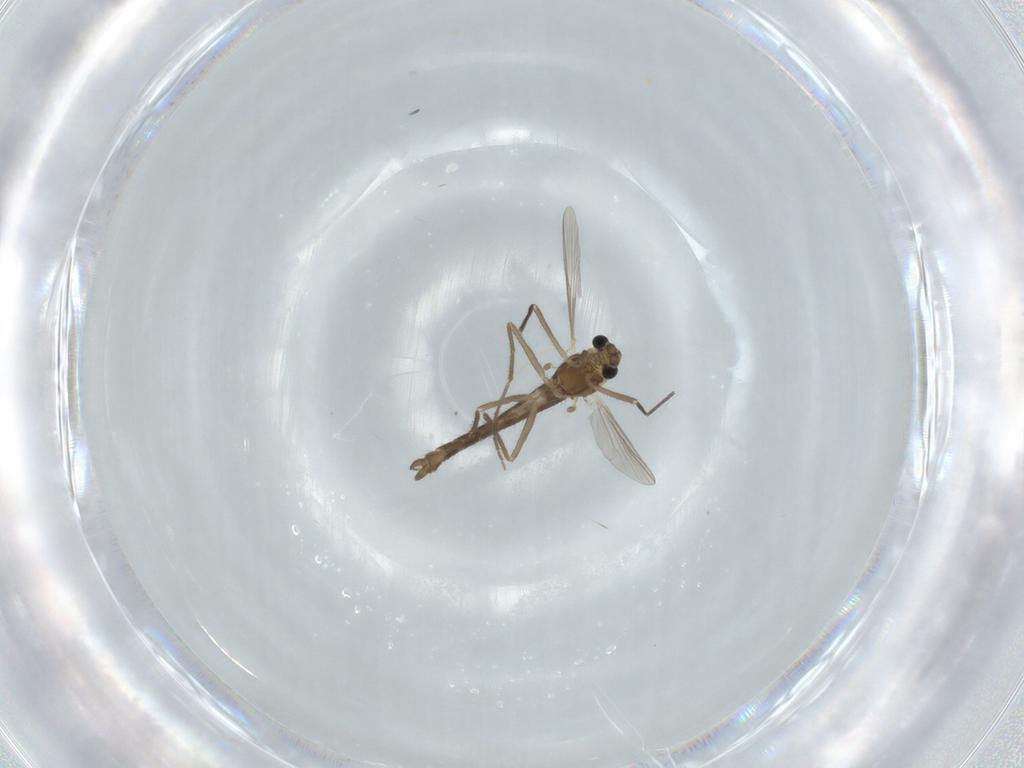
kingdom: Animalia
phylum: Arthropoda
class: Insecta
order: Diptera
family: Chironomidae
